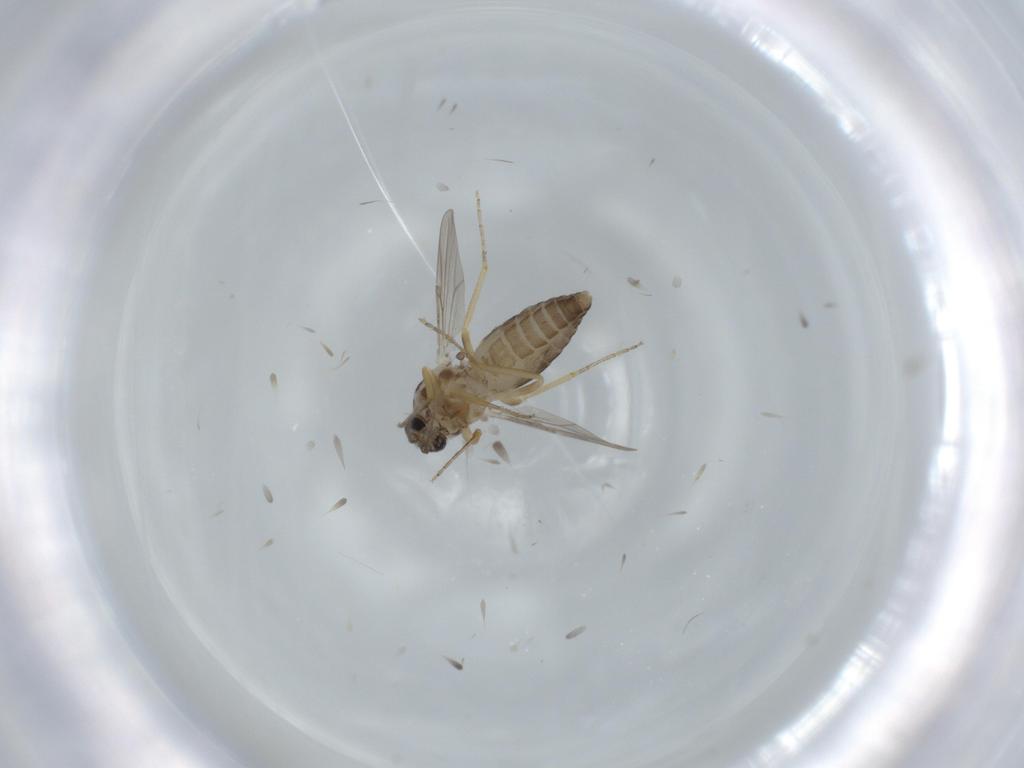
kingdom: Animalia
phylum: Arthropoda
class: Insecta
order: Diptera
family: Ceratopogonidae
